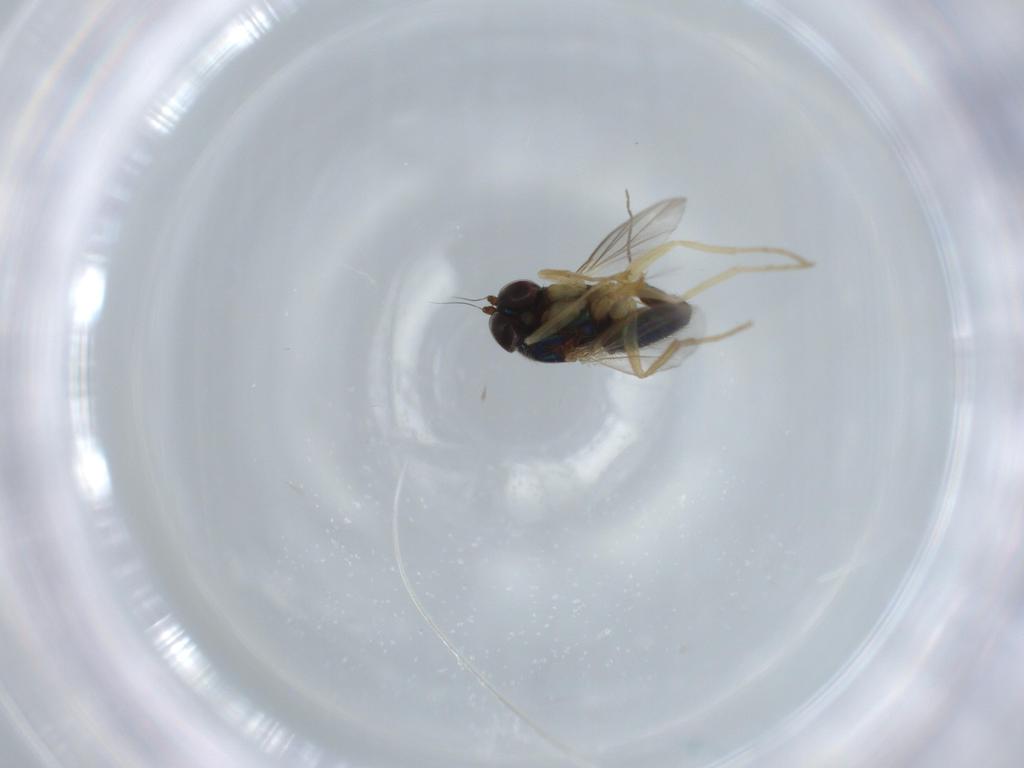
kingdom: Animalia
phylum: Arthropoda
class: Insecta
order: Diptera
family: Dolichopodidae
